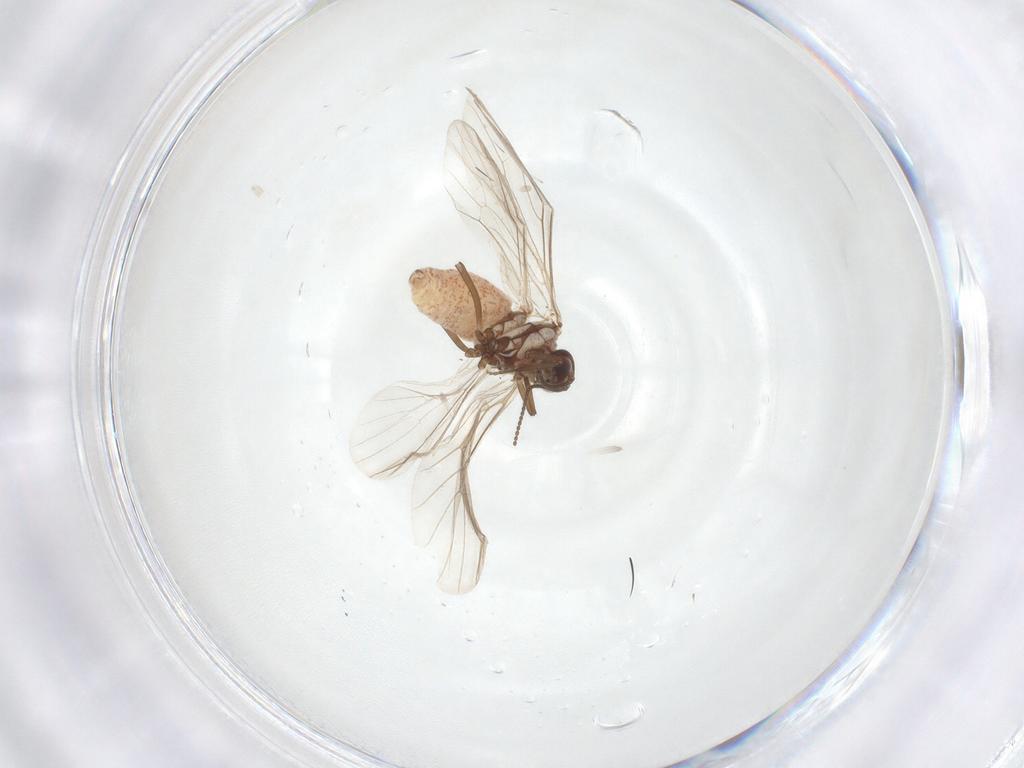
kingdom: Animalia
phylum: Arthropoda
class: Insecta
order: Neuroptera
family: Coniopterygidae
